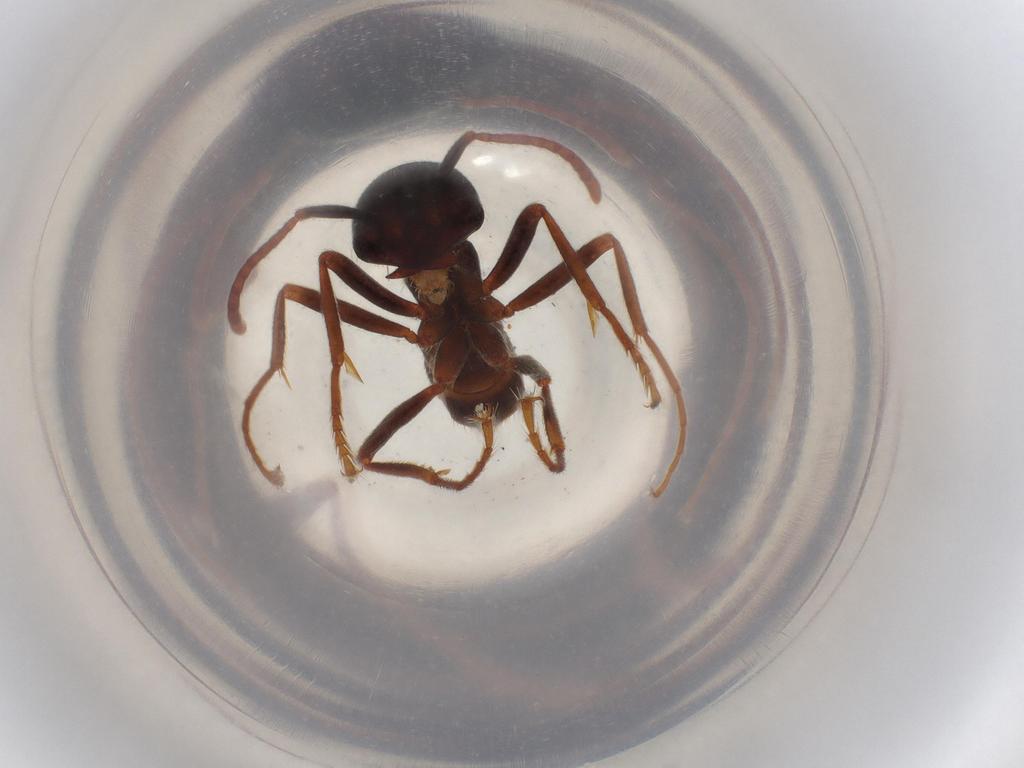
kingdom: Animalia
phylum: Arthropoda
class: Insecta
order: Hymenoptera
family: Formicidae
